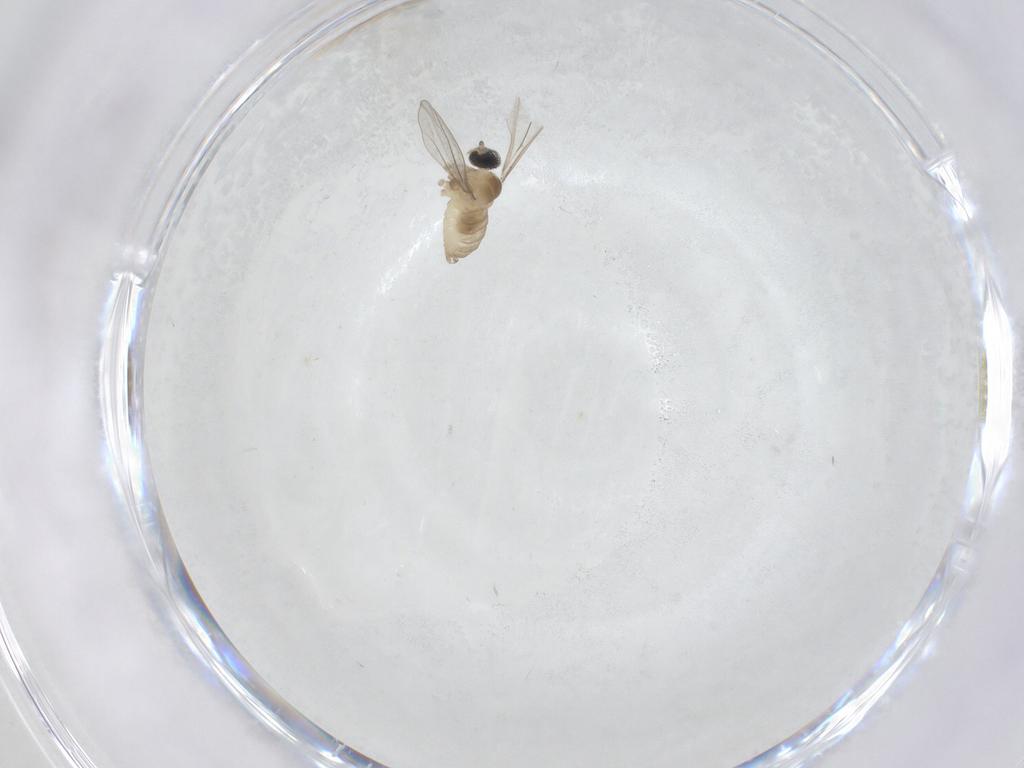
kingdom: Animalia
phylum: Arthropoda
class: Insecta
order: Diptera
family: Cecidomyiidae
